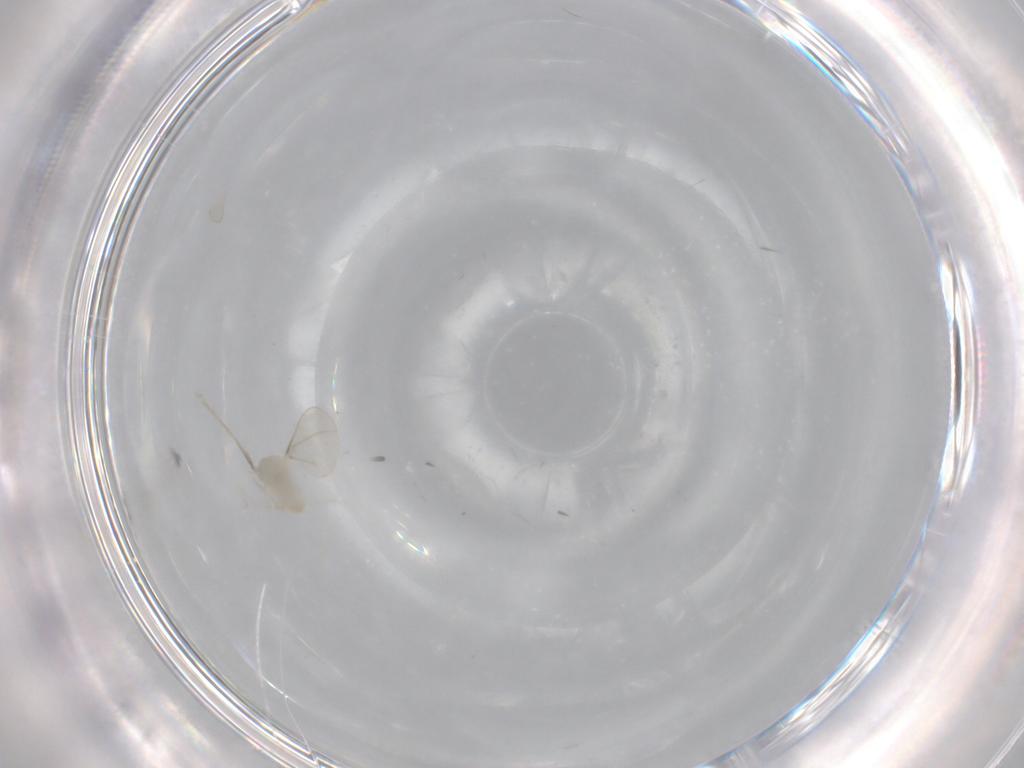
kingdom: Animalia
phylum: Arthropoda
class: Insecta
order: Diptera
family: Cecidomyiidae
